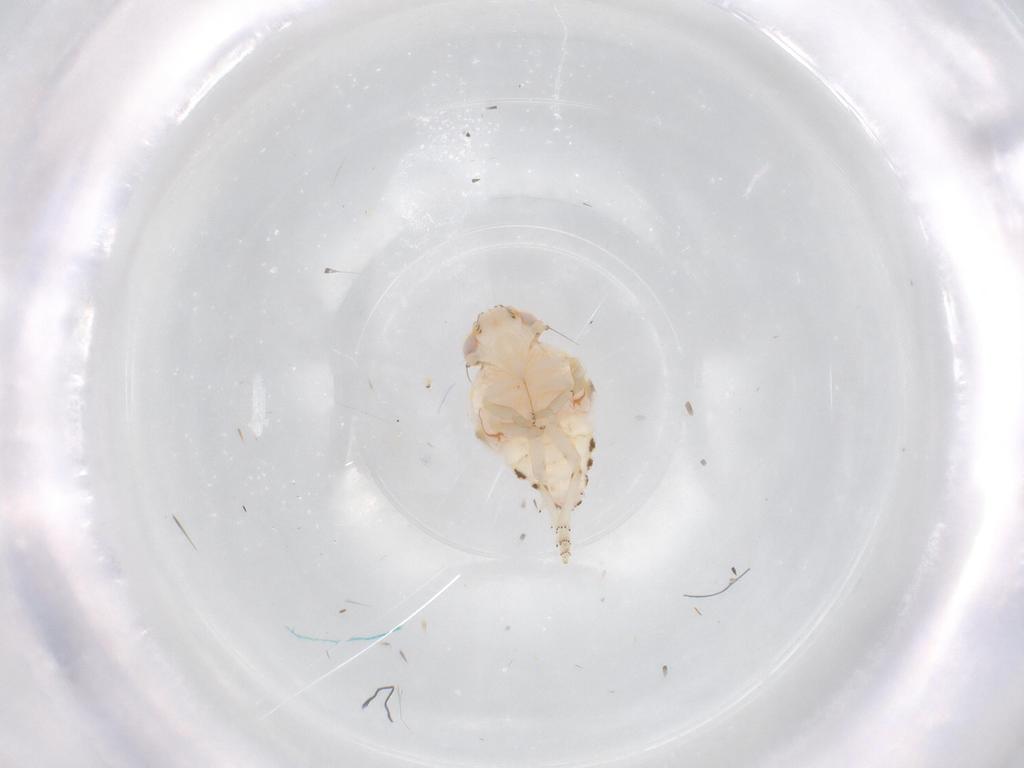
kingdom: Animalia
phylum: Arthropoda
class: Insecta
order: Hemiptera
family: Nogodinidae
